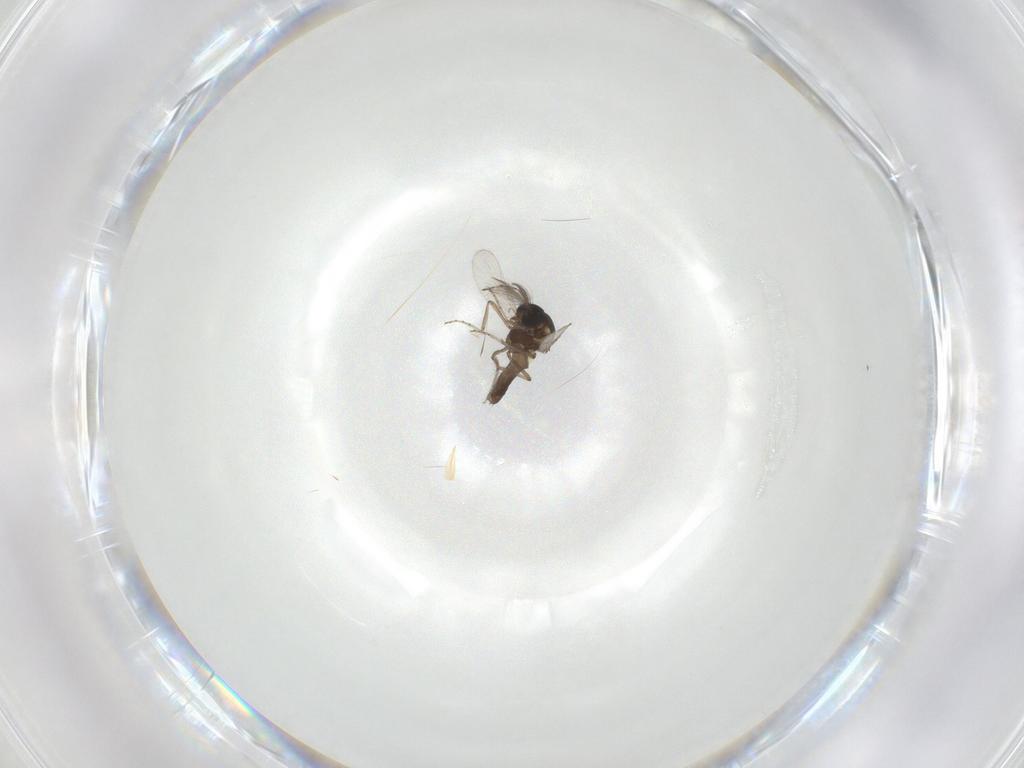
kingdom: Animalia
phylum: Arthropoda
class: Insecta
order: Diptera
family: Ceratopogonidae
